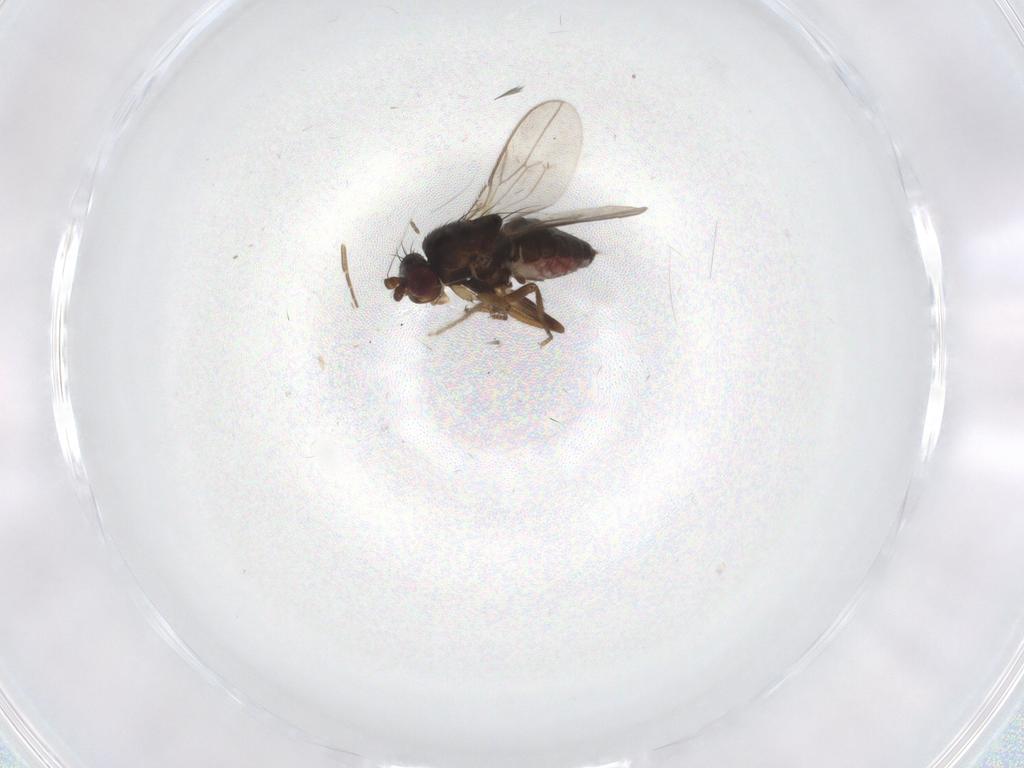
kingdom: Animalia
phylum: Arthropoda
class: Insecta
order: Diptera
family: Psychodidae
